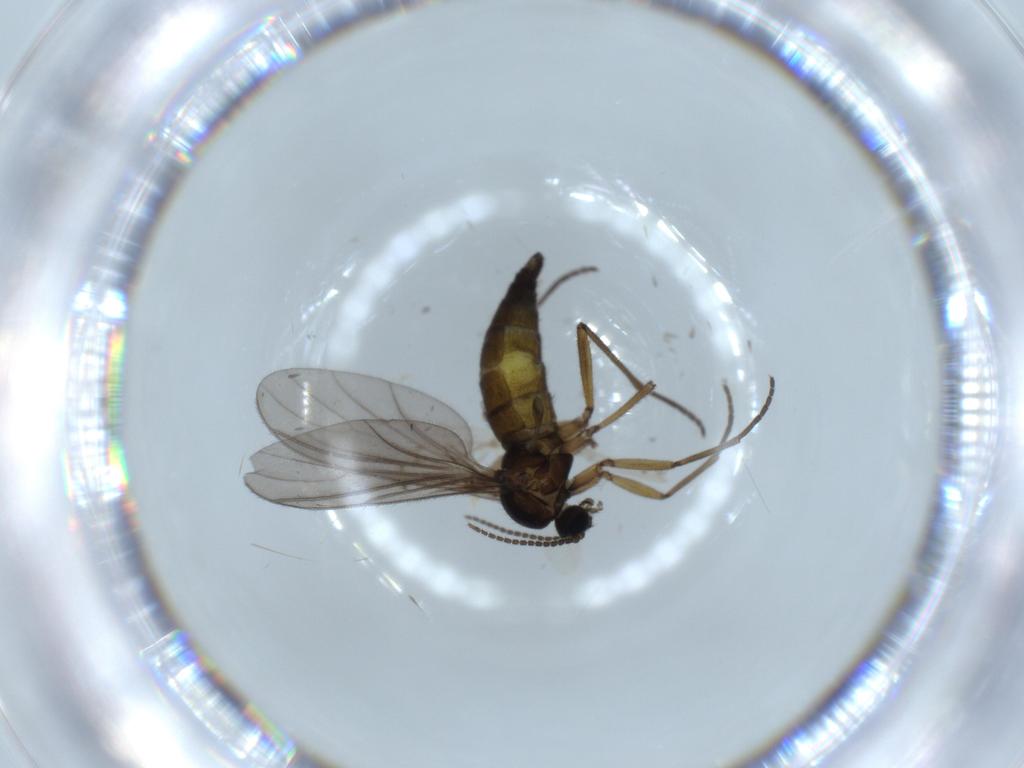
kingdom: Animalia
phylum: Arthropoda
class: Insecta
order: Diptera
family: Sciaridae
